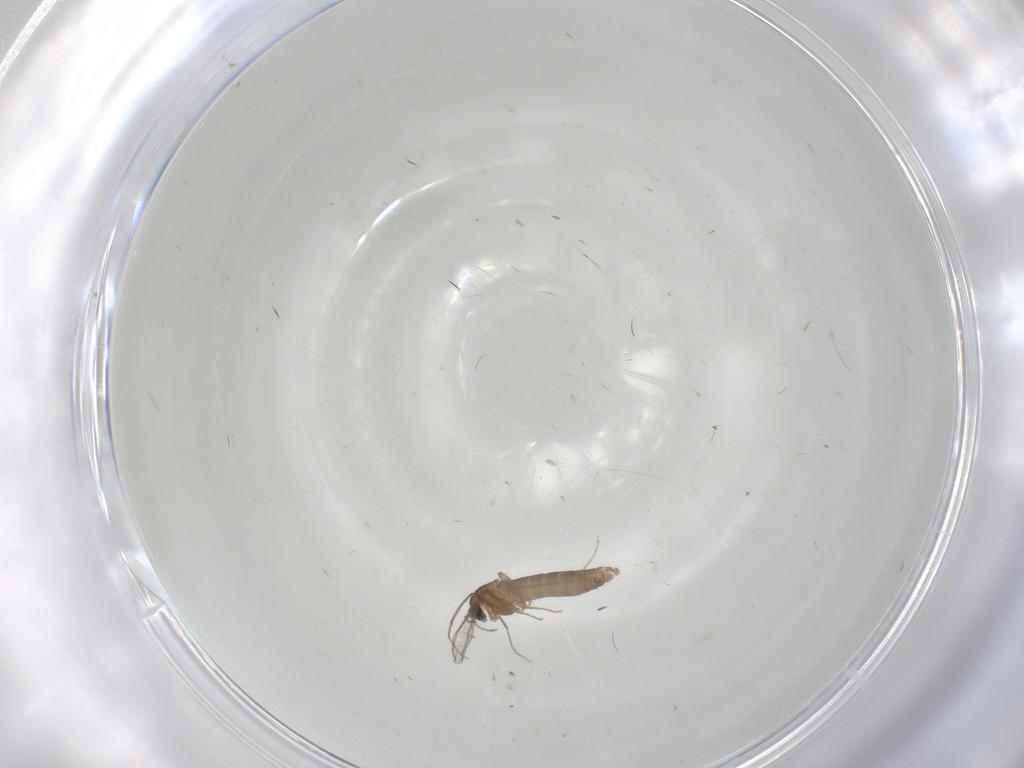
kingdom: Animalia
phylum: Arthropoda
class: Insecta
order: Diptera
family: Chironomidae
